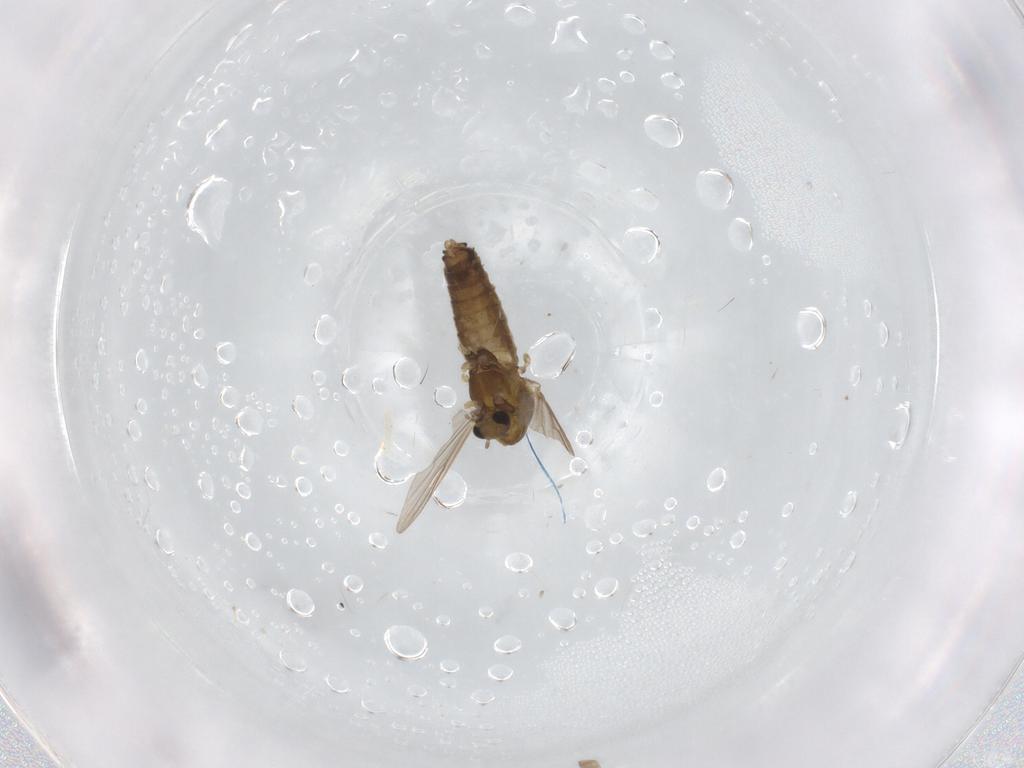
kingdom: Animalia
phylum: Arthropoda
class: Insecta
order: Diptera
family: Chironomidae
